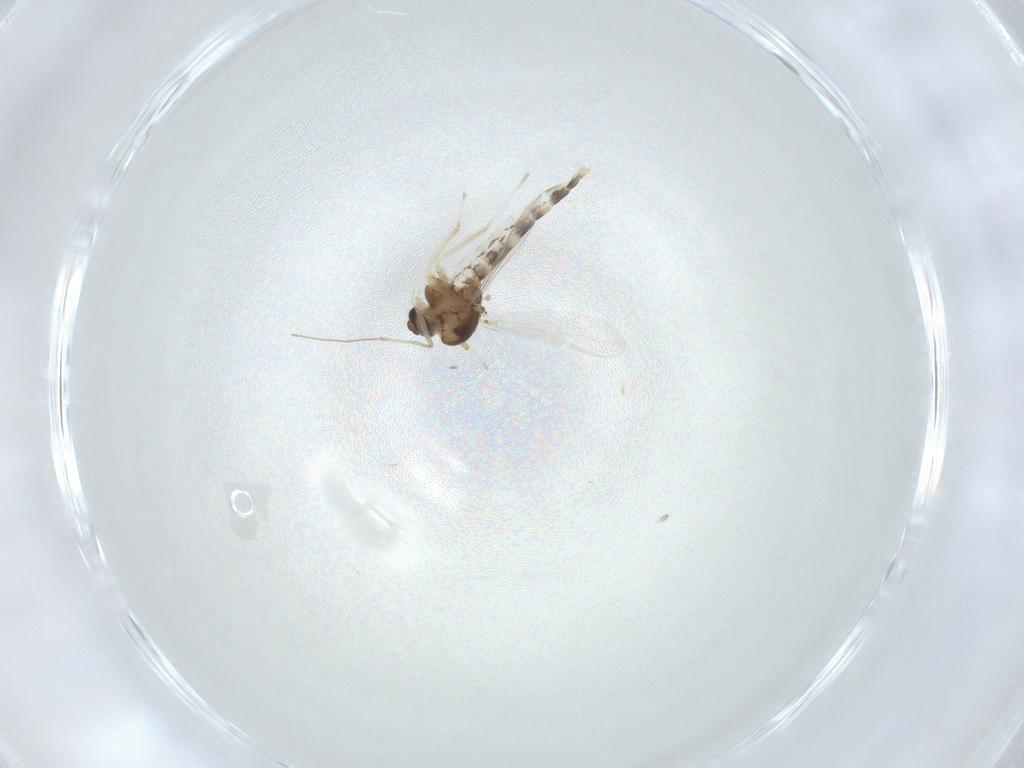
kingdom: Animalia
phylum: Arthropoda
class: Insecta
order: Diptera
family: Chironomidae
